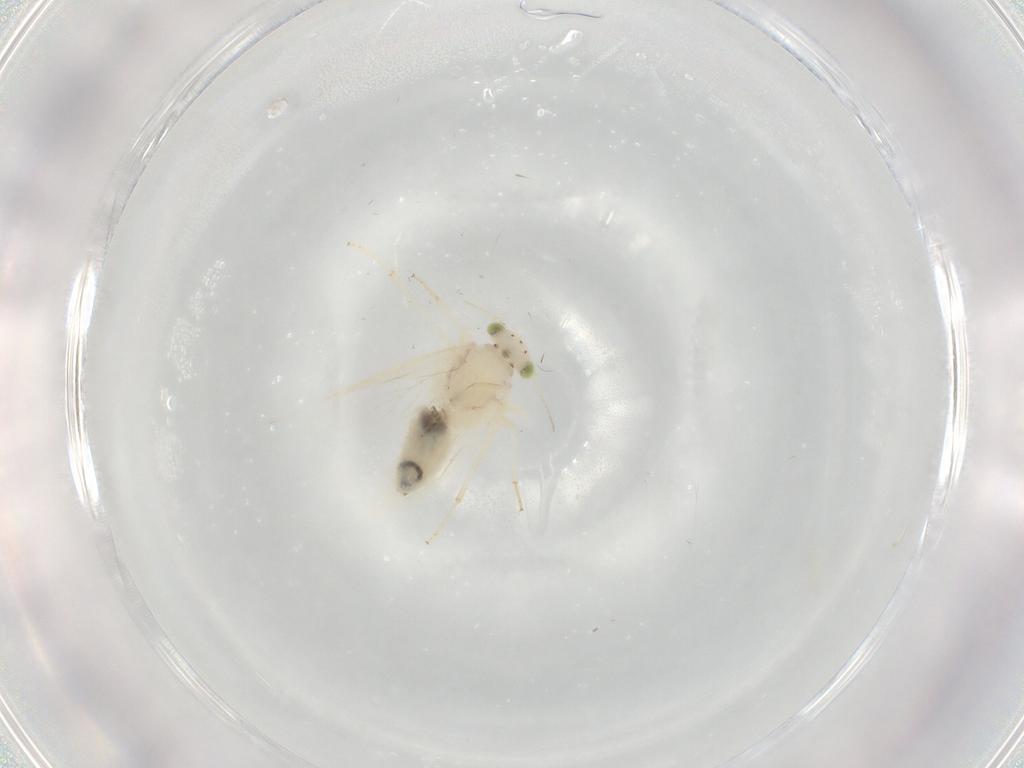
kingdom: Animalia
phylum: Arthropoda
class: Insecta
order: Psocodea
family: Lepidopsocidae
